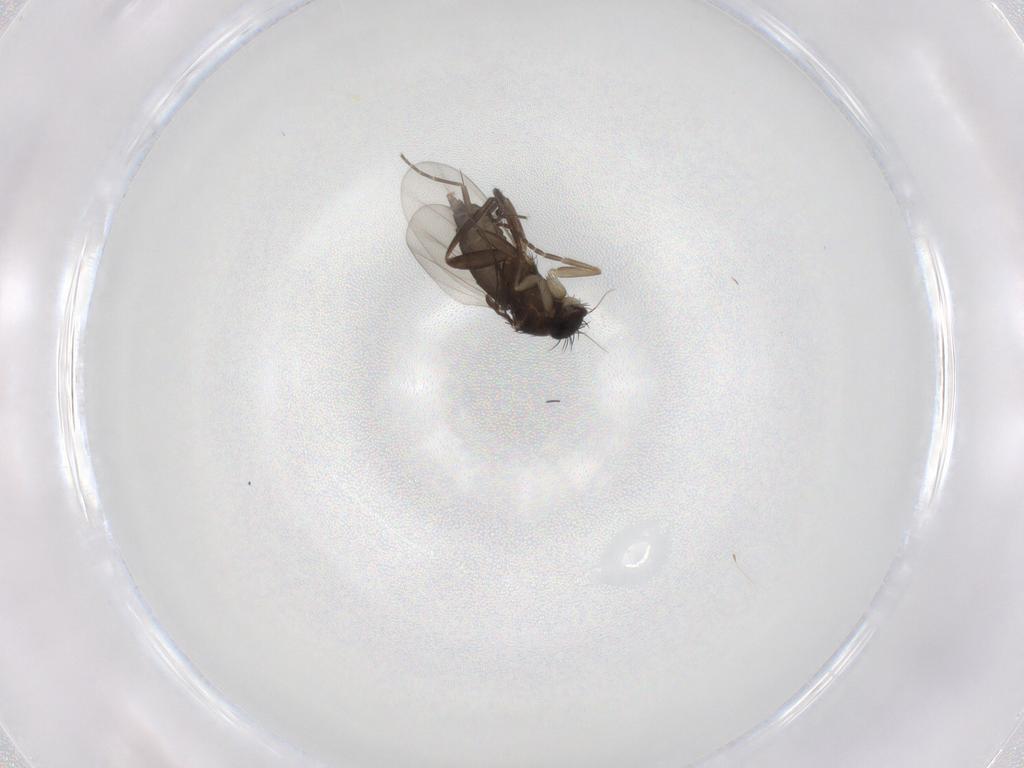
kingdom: Animalia
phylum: Arthropoda
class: Insecta
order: Diptera
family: Phoridae
